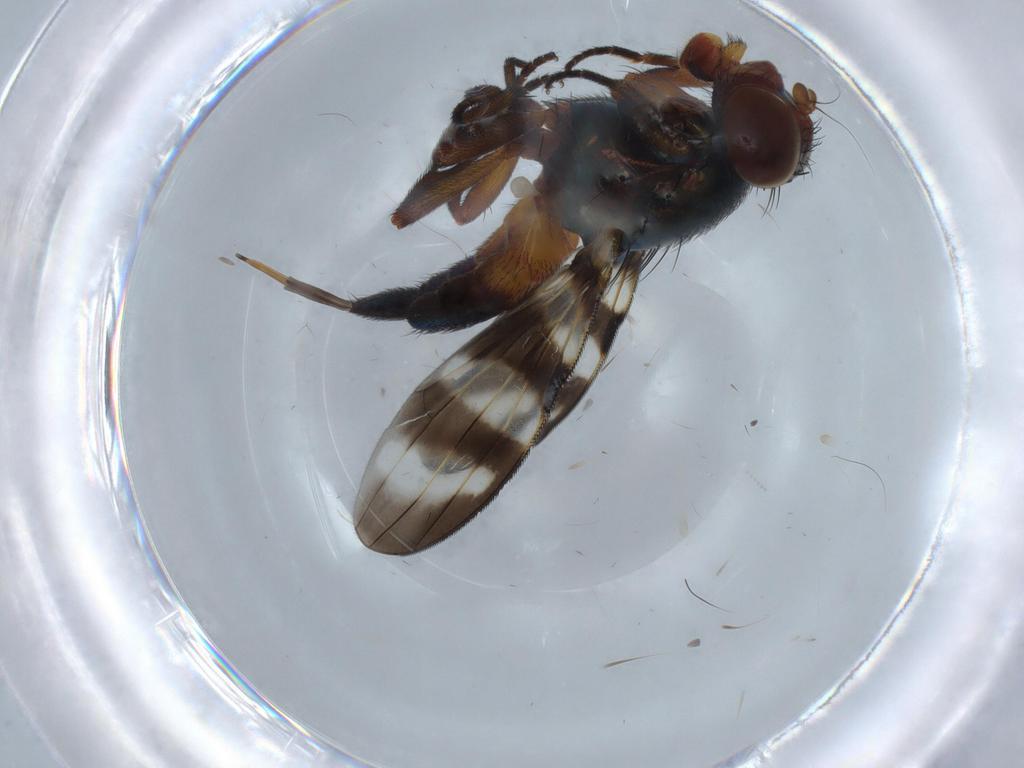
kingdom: Animalia
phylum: Arthropoda
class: Insecta
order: Diptera
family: Chironomidae
